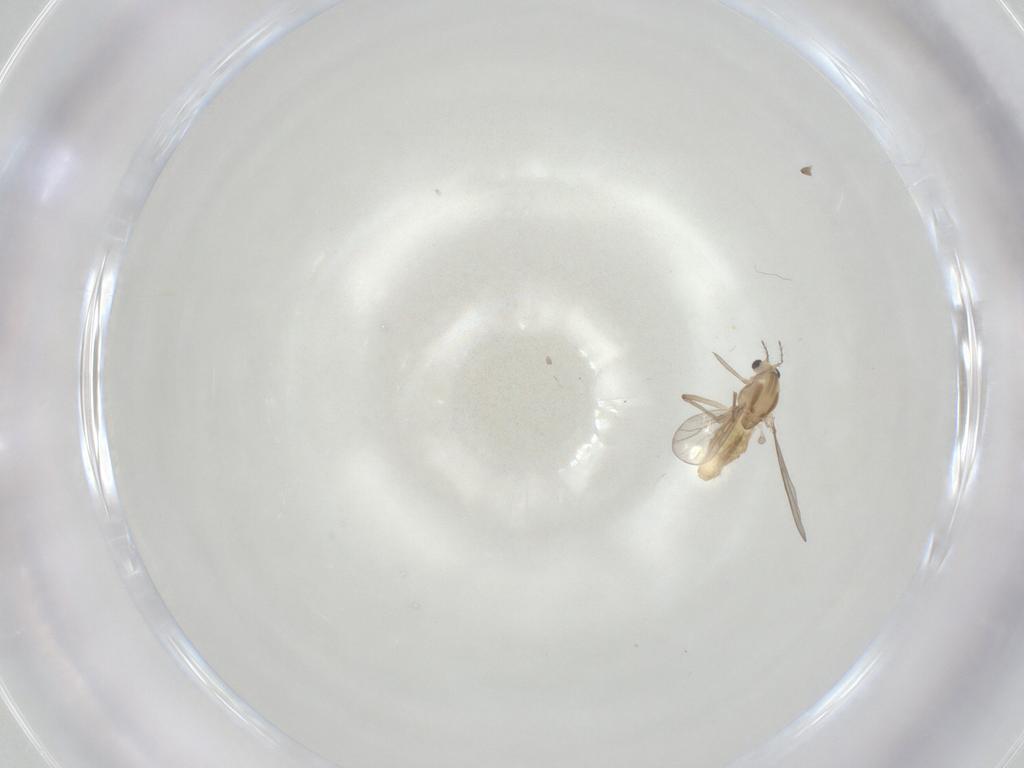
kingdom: Animalia
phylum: Arthropoda
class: Insecta
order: Diptera
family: Chironomidae
